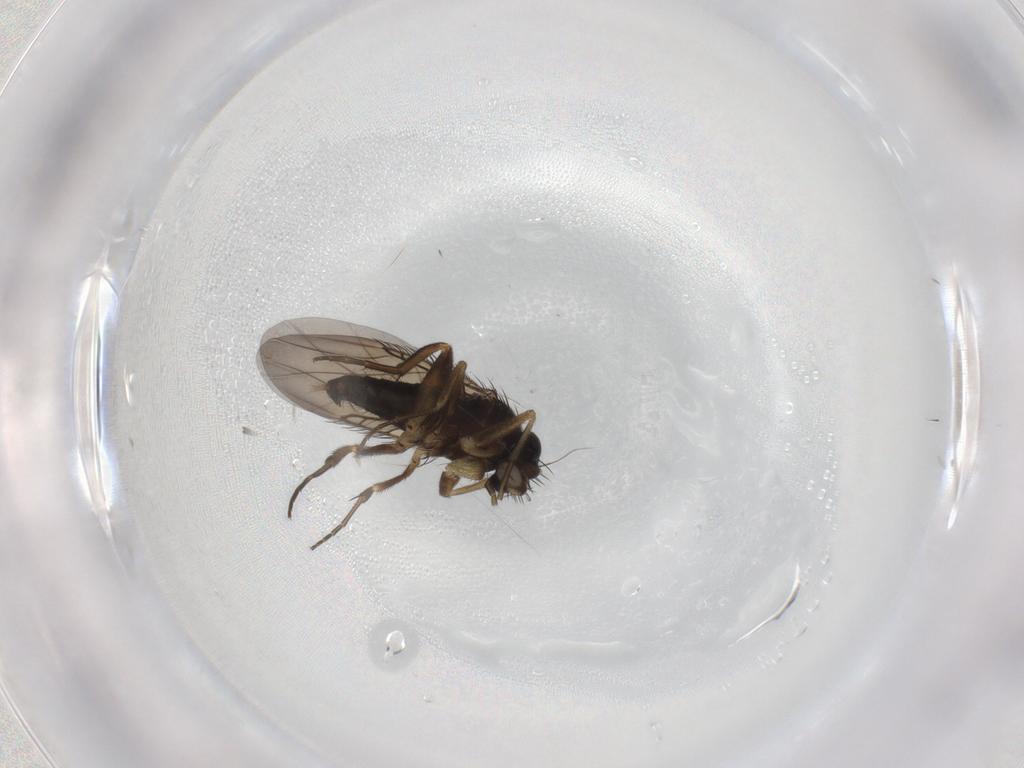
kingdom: Animalia
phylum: Arthropoda
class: Insecta
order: Diptera
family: Phoridae
